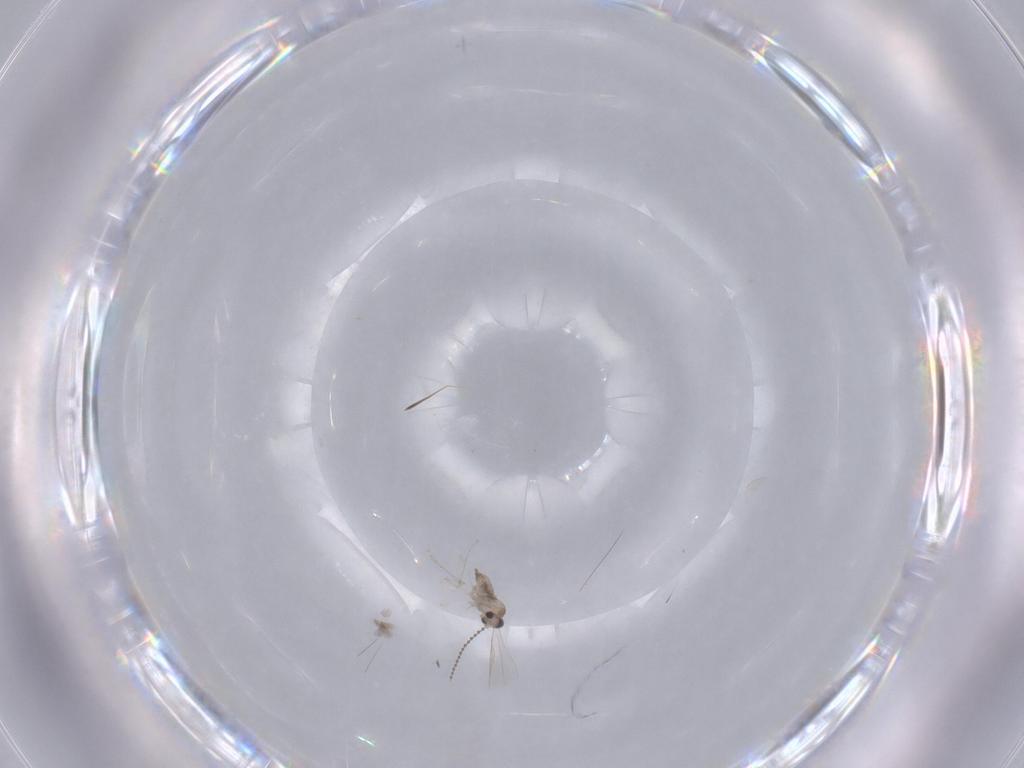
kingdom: Animalia
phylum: Arthropoda
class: Insecta
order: Diptera
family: Cecidomyiidae
